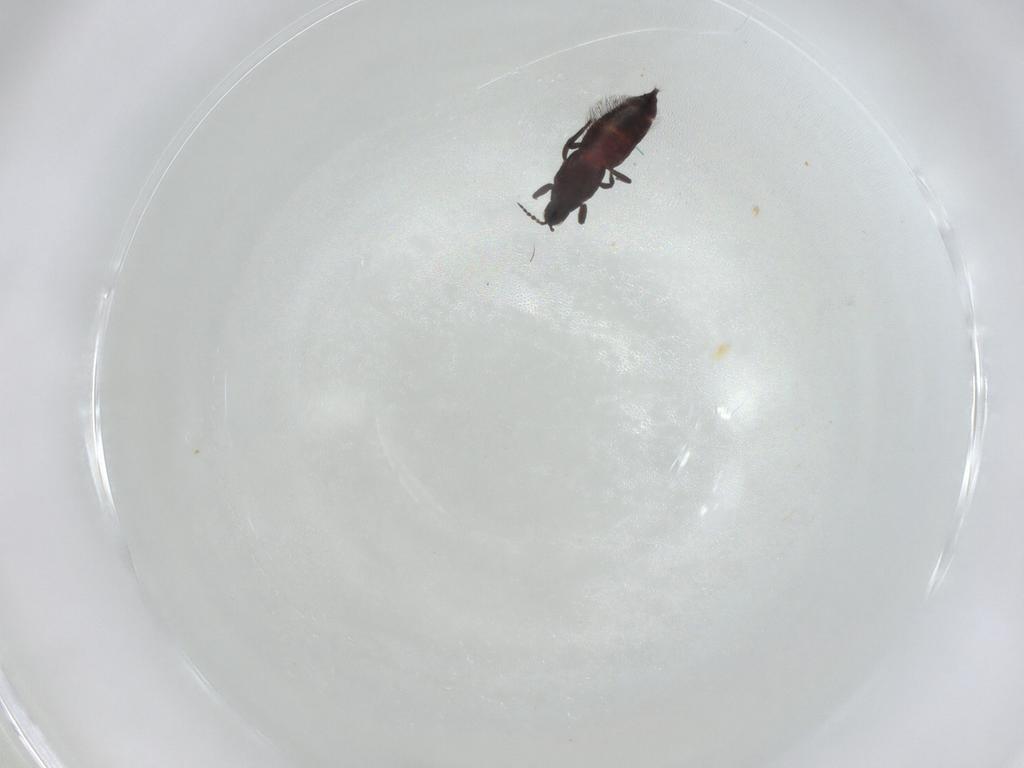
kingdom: Animalia
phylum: Arthropoda
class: Insecta
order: Thysanoptera
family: Phlaeothripidae
